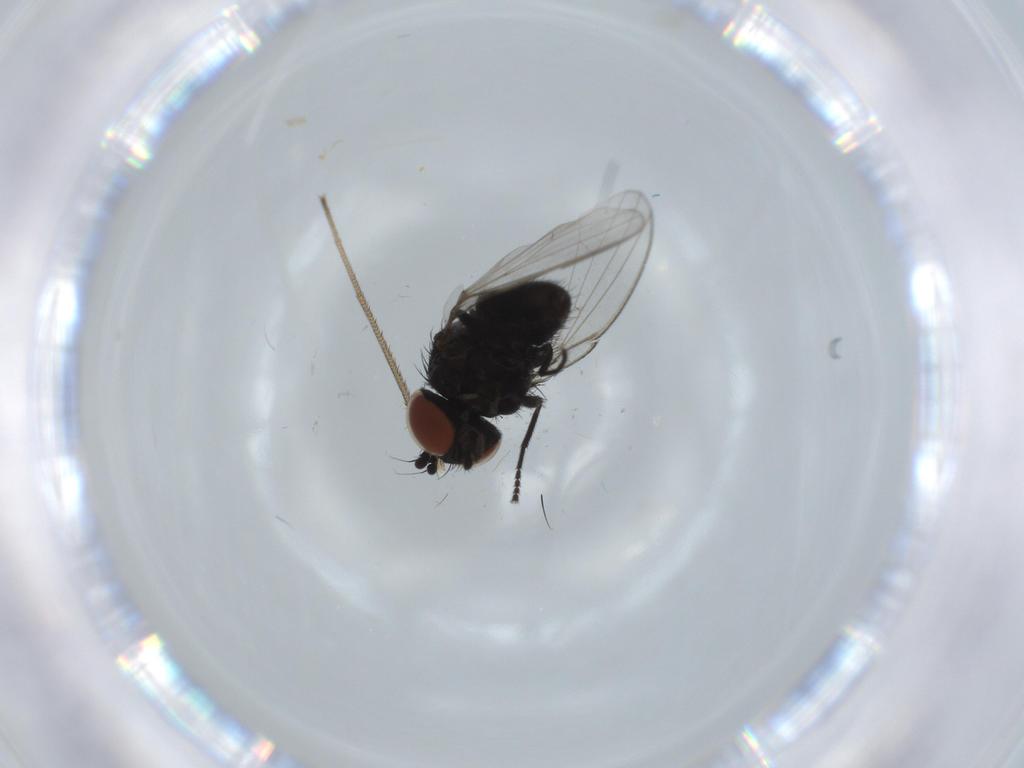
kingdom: Animalia
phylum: Arthropoda
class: Insecta
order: Diptera
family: Milichiidae
